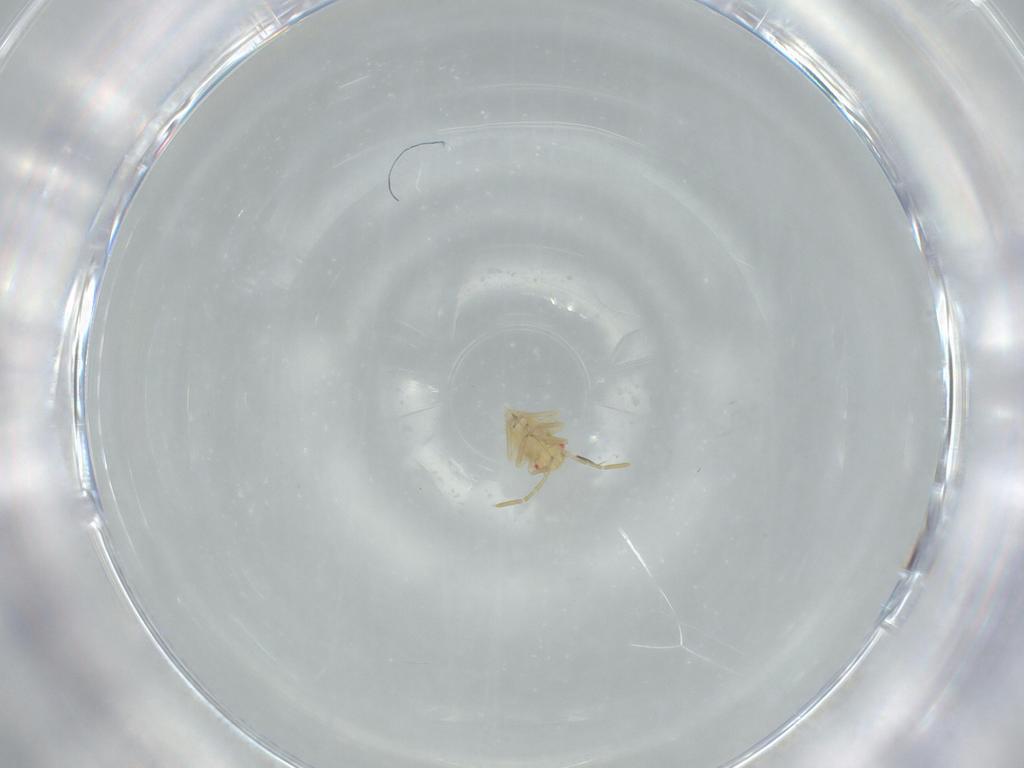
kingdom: Animalia
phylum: Arthropoda
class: Insecta
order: Hemiptera
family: Miridae
